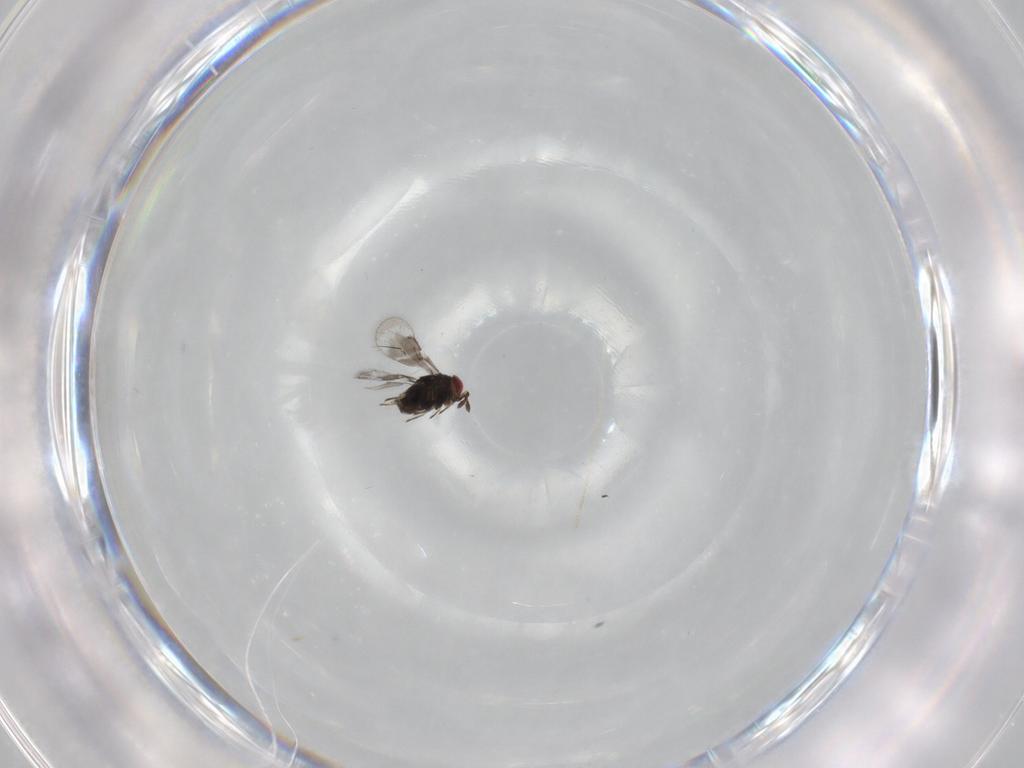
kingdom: Animalia
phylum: Arthropoda
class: Insecta
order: Hymenoptera
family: Eulophidae
